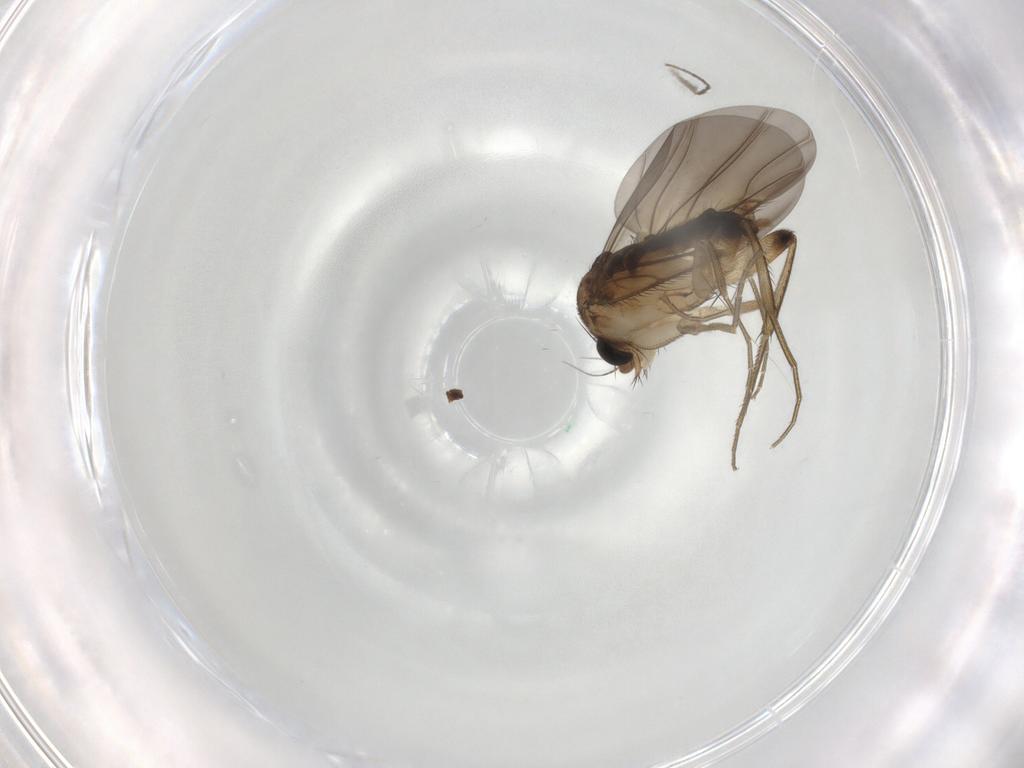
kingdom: Animalia
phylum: Arthropoda
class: Insecta
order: Diptera
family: Phoridae
